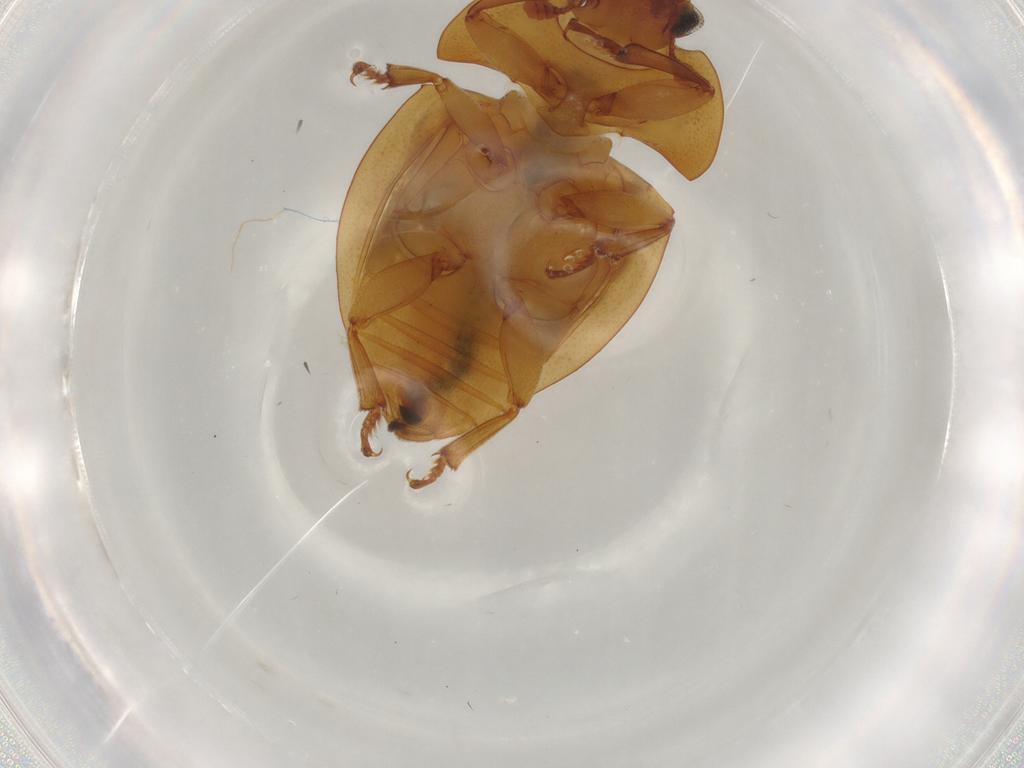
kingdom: Animalia
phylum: Arthropoda
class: Insecta
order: Coleoptera
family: Nitidulidae
